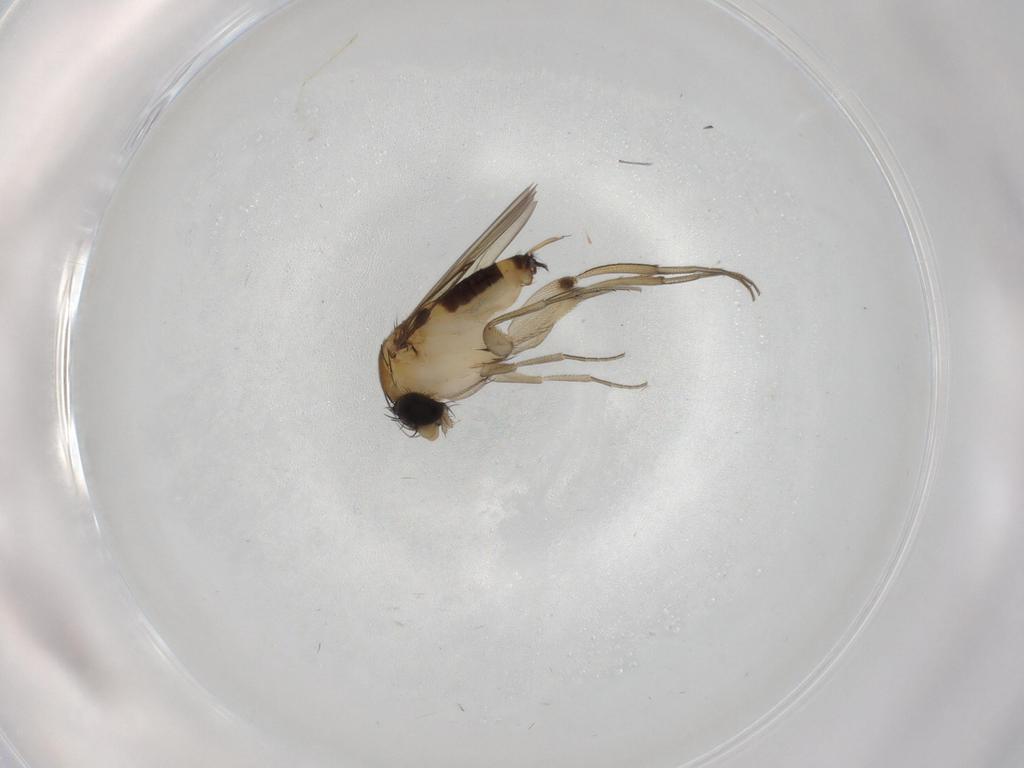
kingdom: Animalia
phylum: Arthropoda
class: Insecta
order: Diptera
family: Phoridae
